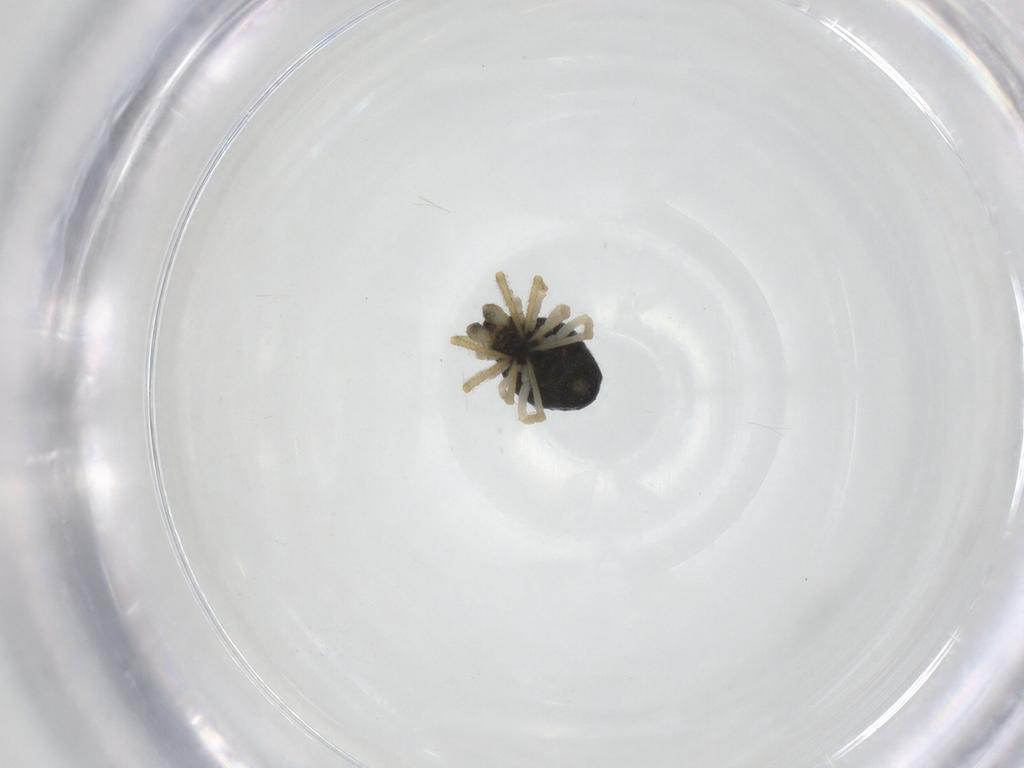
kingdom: Animalia
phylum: Arthropoda
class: Arachnida
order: Araneae
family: Theridiidae
